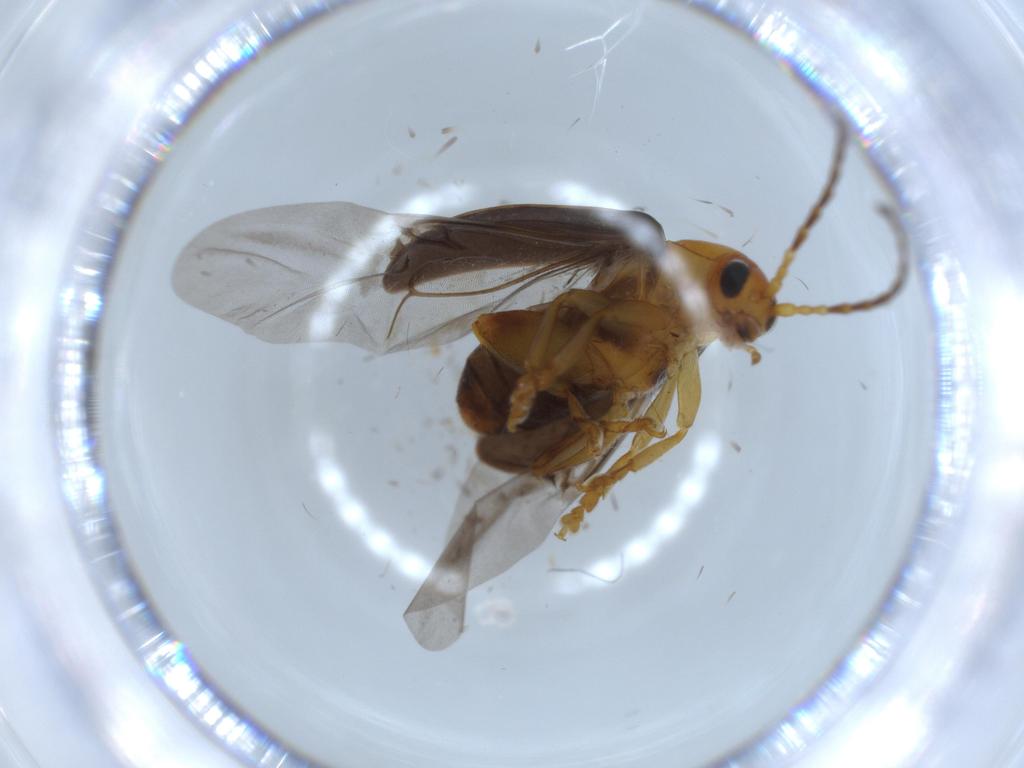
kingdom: Animalia
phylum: Arthropoda
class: Insecta
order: Coleoptera
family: Chrysomelidae
